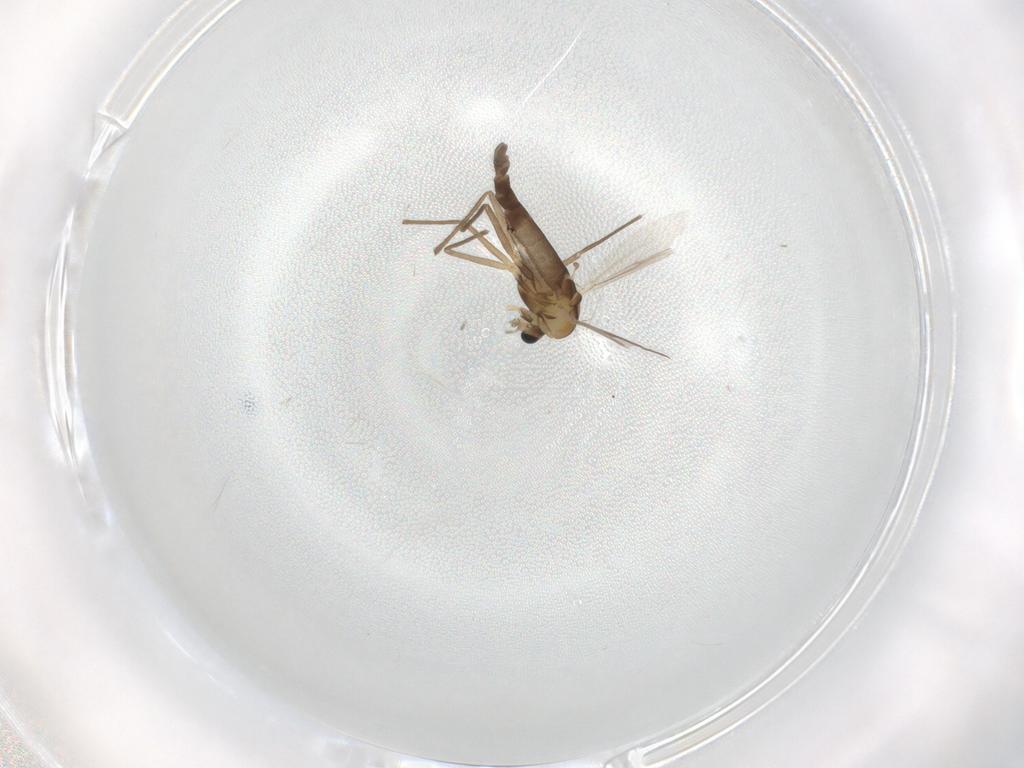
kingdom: Animalia
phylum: Arthropoda
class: Insecta
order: Diptera
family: Chironomidae
